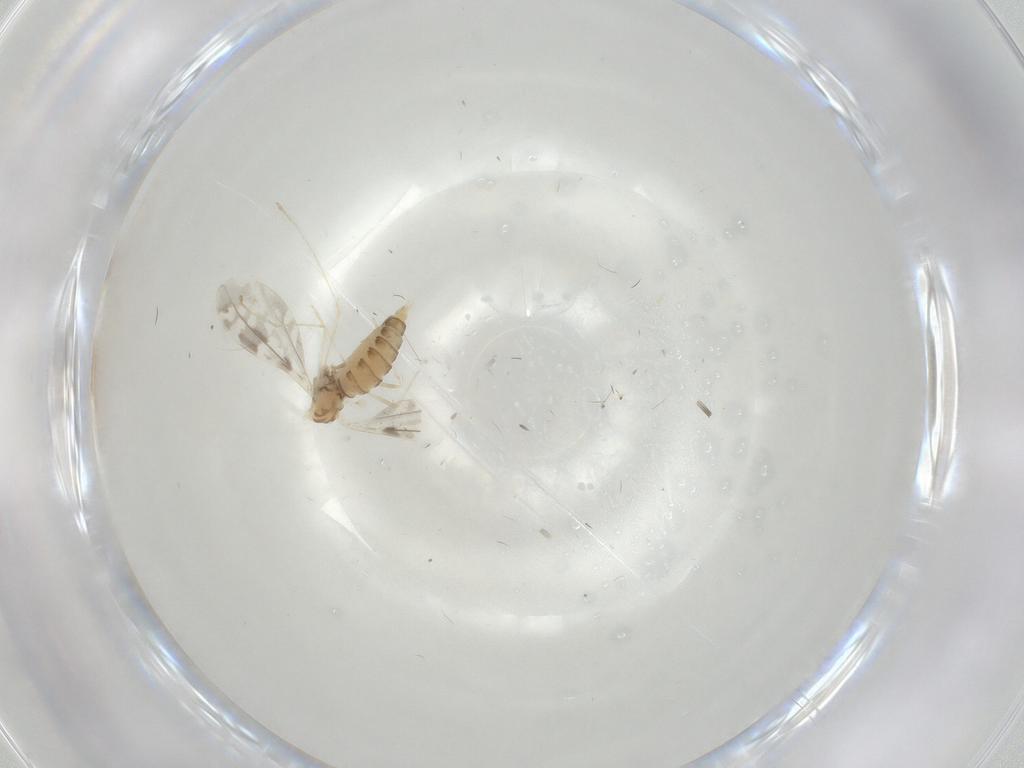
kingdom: Animalia
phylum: Arthropoda
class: Insecta
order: Diptera
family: Cecidomyiidae
